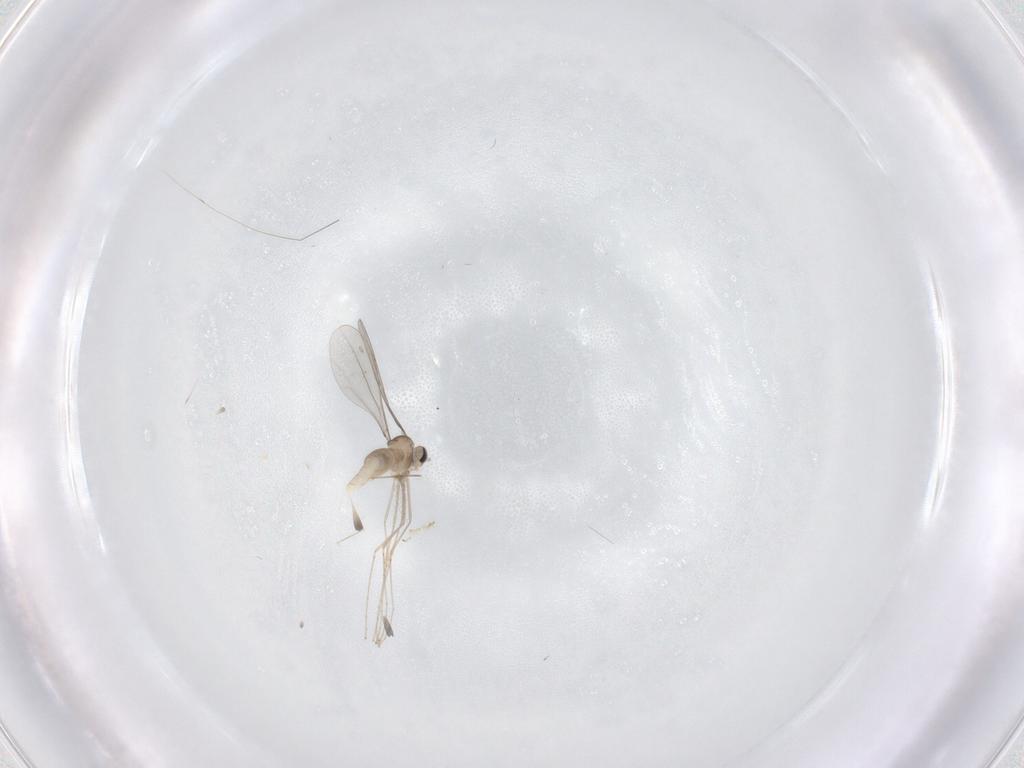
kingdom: Animalia
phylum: Arthropoda
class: Insecta
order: Diptera
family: Cecidomyiidae
